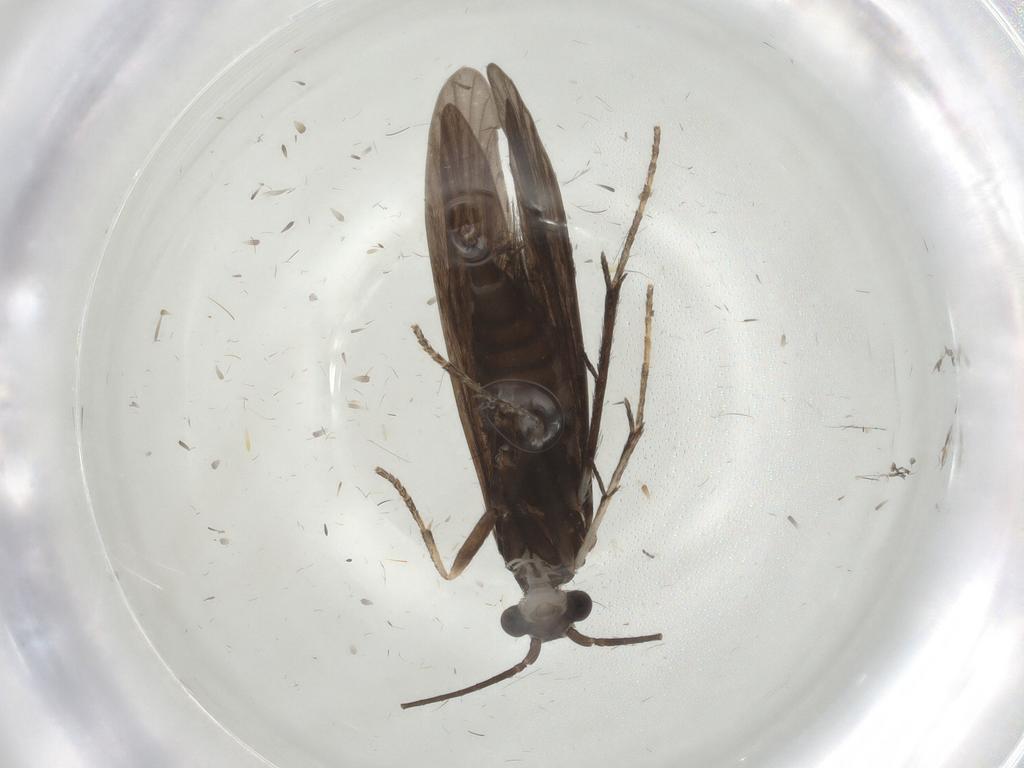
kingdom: Animalia
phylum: Arthropoda
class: Insecta
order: Trichoptera
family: Xiphocentronidae
